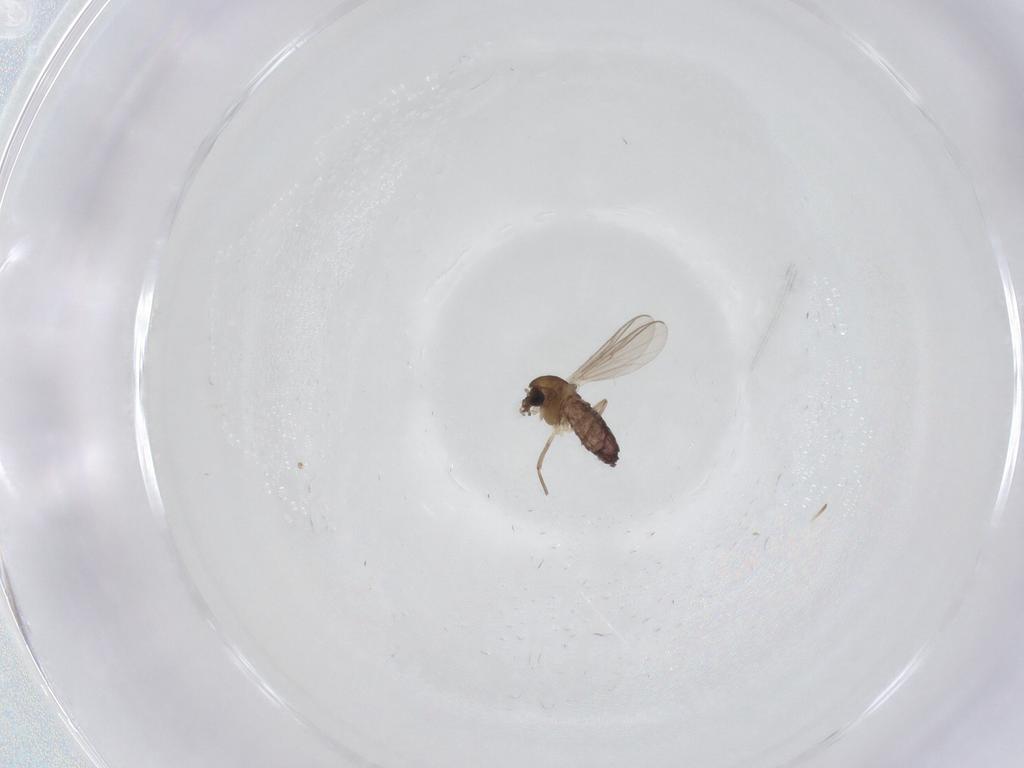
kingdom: Animalia
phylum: Arthropoda
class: Insecta
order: Diptera
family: Chironomidae
